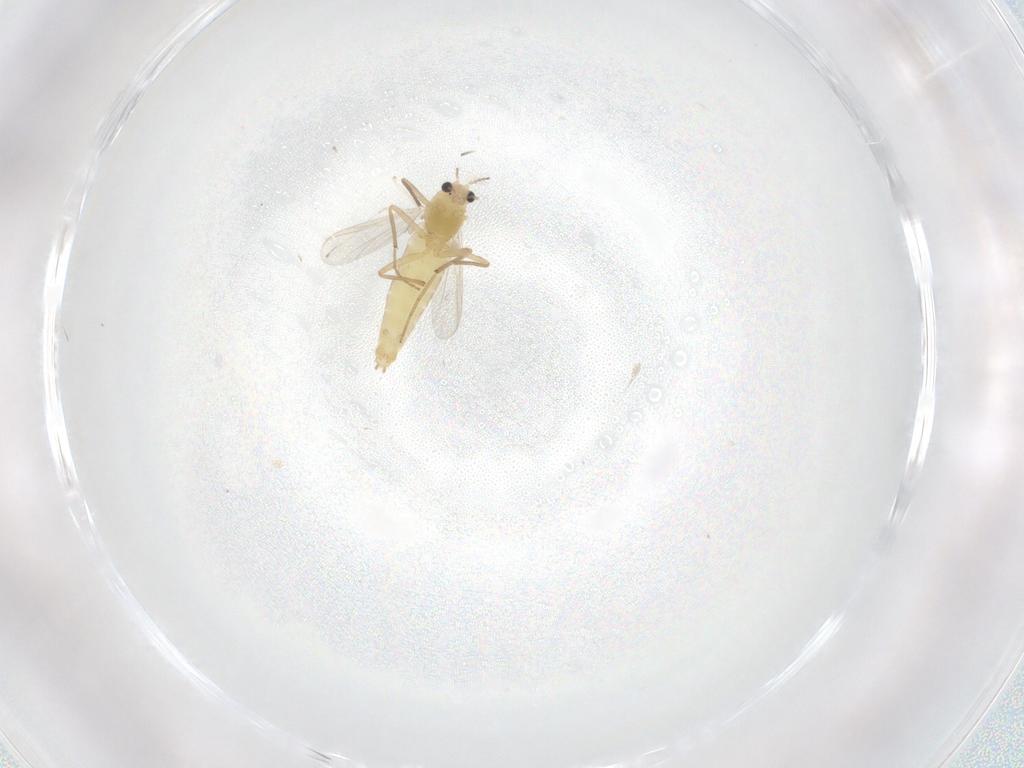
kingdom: Animalia
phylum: Arthropoda
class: Insecta
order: Diptera
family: Chironomidae
